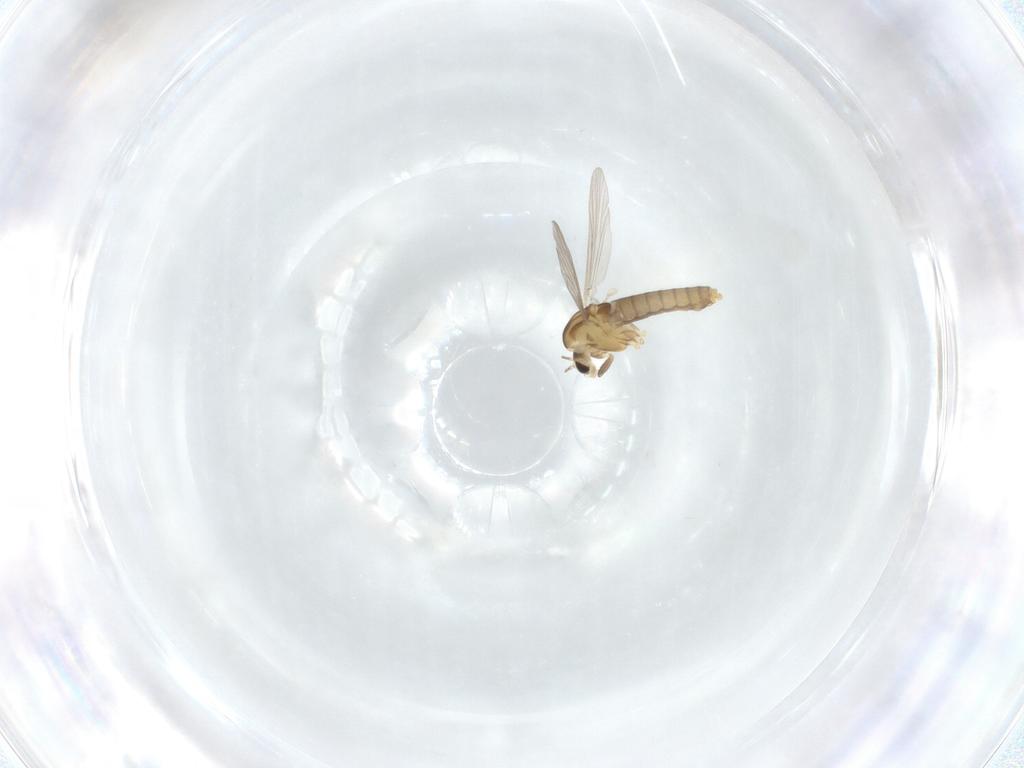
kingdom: Animalia
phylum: Arthropoda
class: Insecta
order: Diptera
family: Chironomidae
